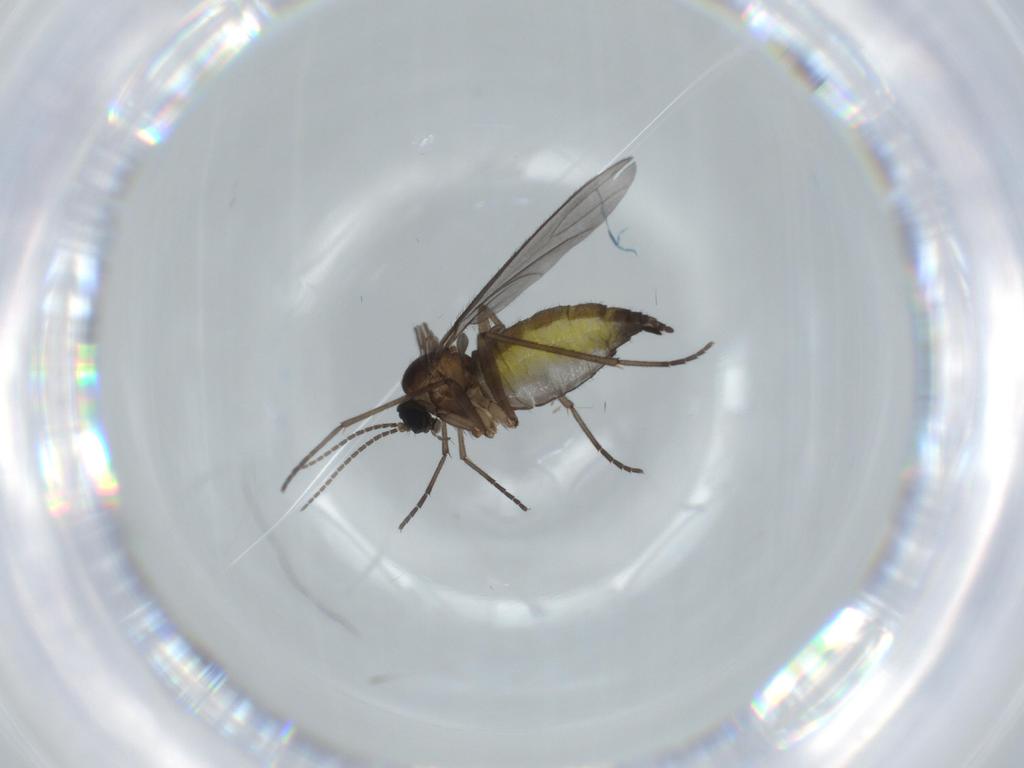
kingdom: Animalia
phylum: Arthropoda
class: Insecta
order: Diptera
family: Sciaridae
